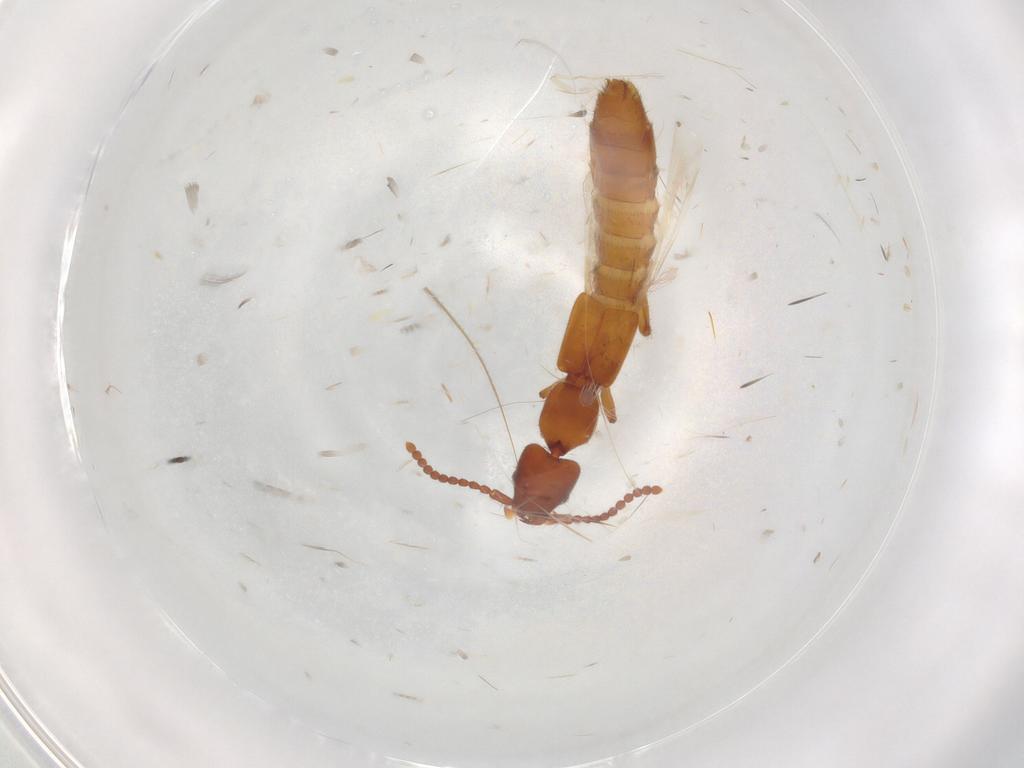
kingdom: Animalia
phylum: Arthropoda
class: Insecta
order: Coleoptera
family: Staphylinidae
